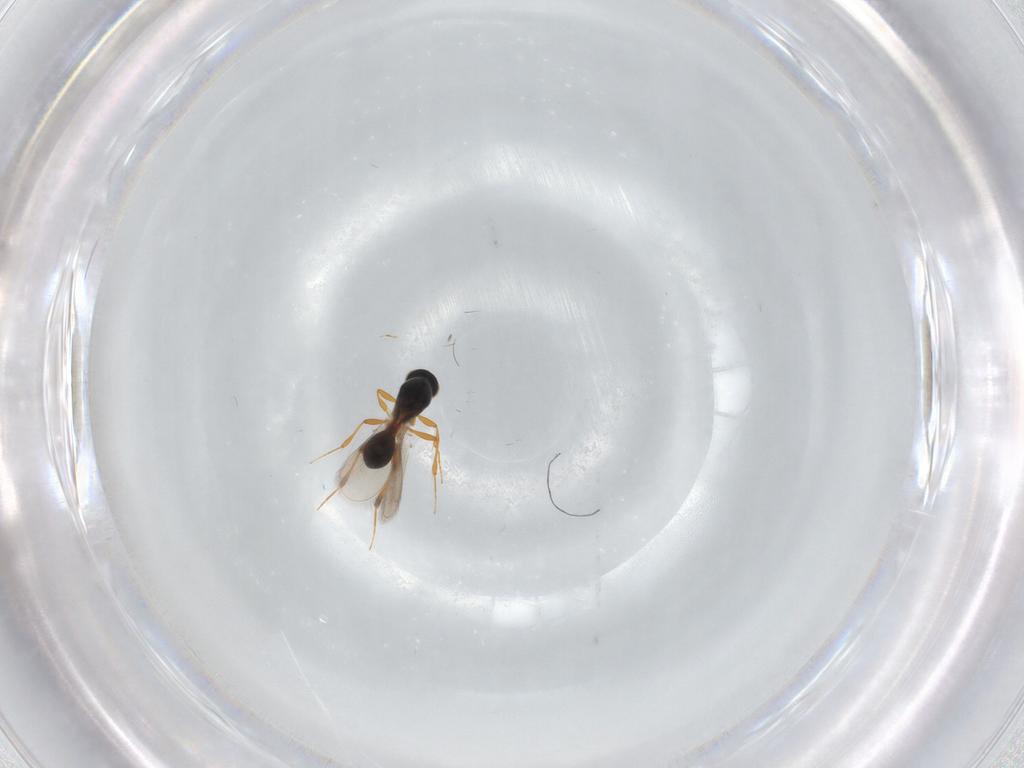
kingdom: Animalia
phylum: Arthropoda
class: Insecta
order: Hymenoptera
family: Platygastridae
